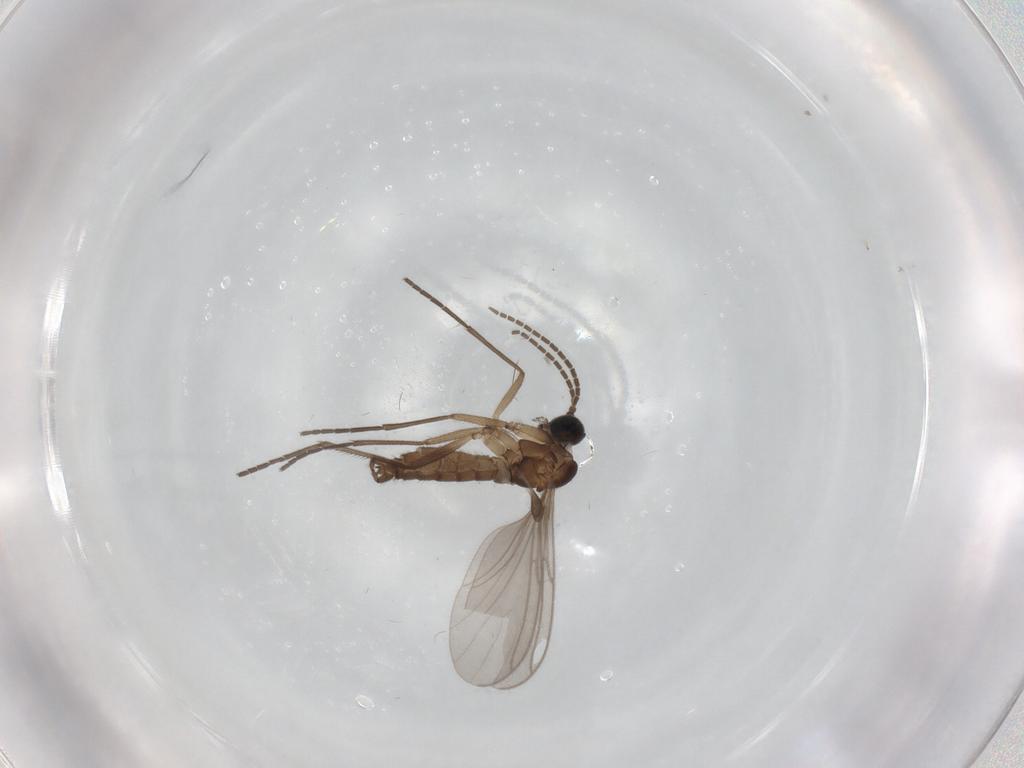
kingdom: Animalia
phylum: Arthropoda
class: Insecta
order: Diptera
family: Sciaridae
